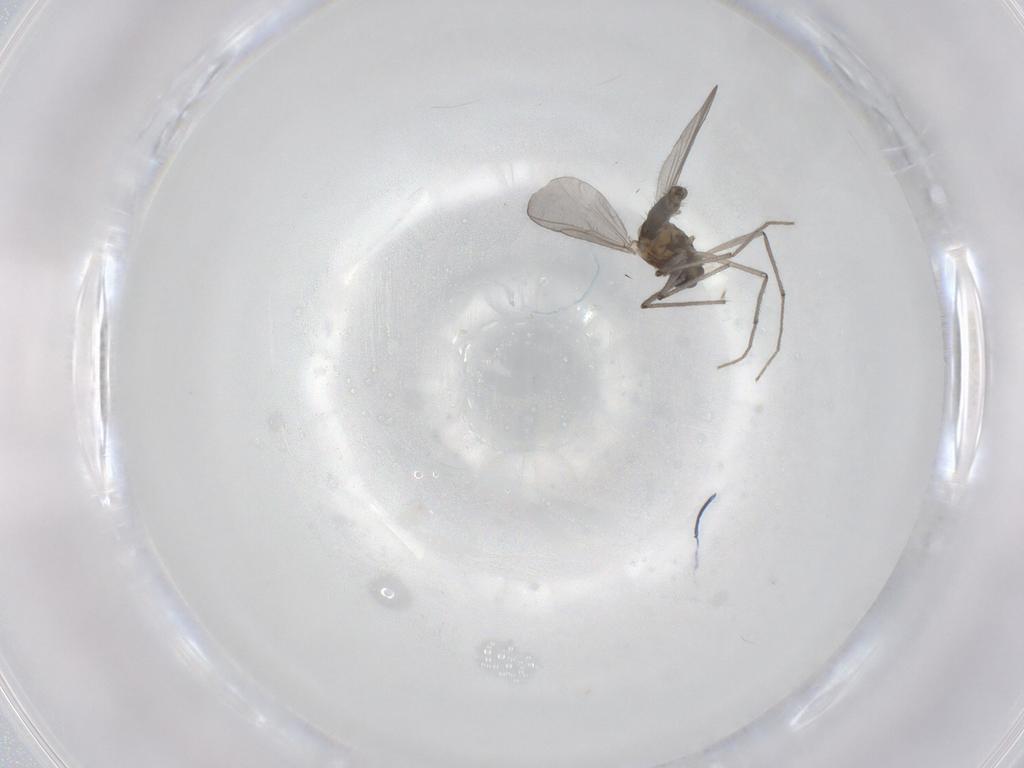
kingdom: Animalia
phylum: Arthropoda
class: Insecta
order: Diptera
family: Chironomidae
